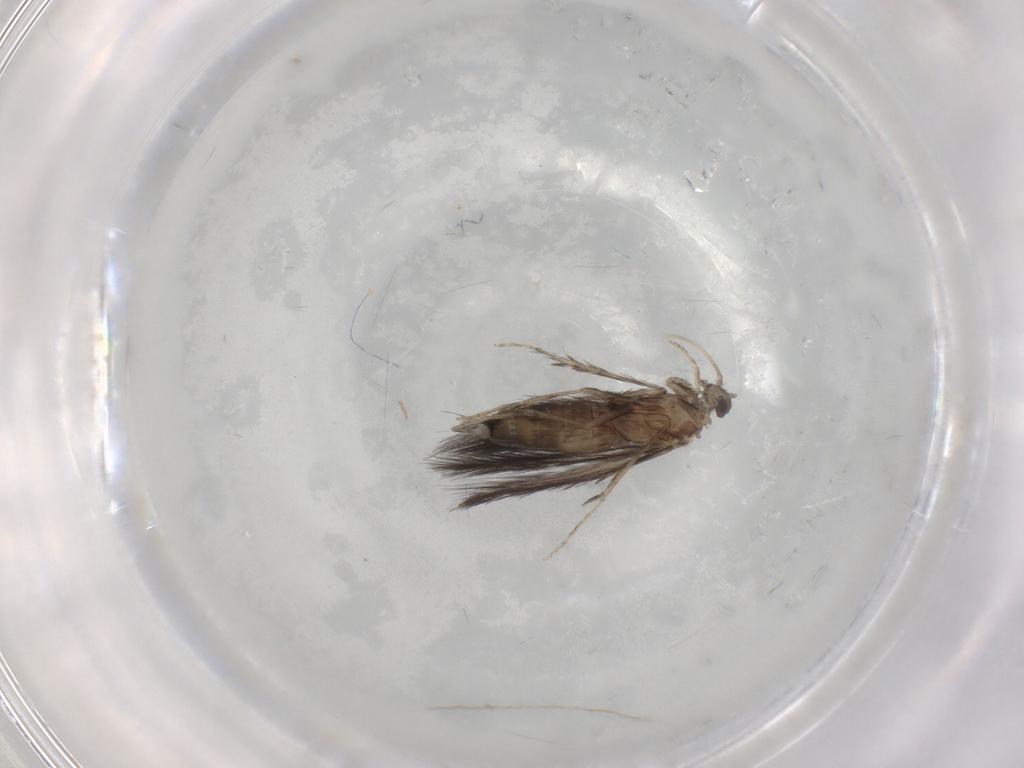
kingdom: Animalia
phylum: Arthropoda
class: Insecta
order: Trichoptera
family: Hydroptilidae
